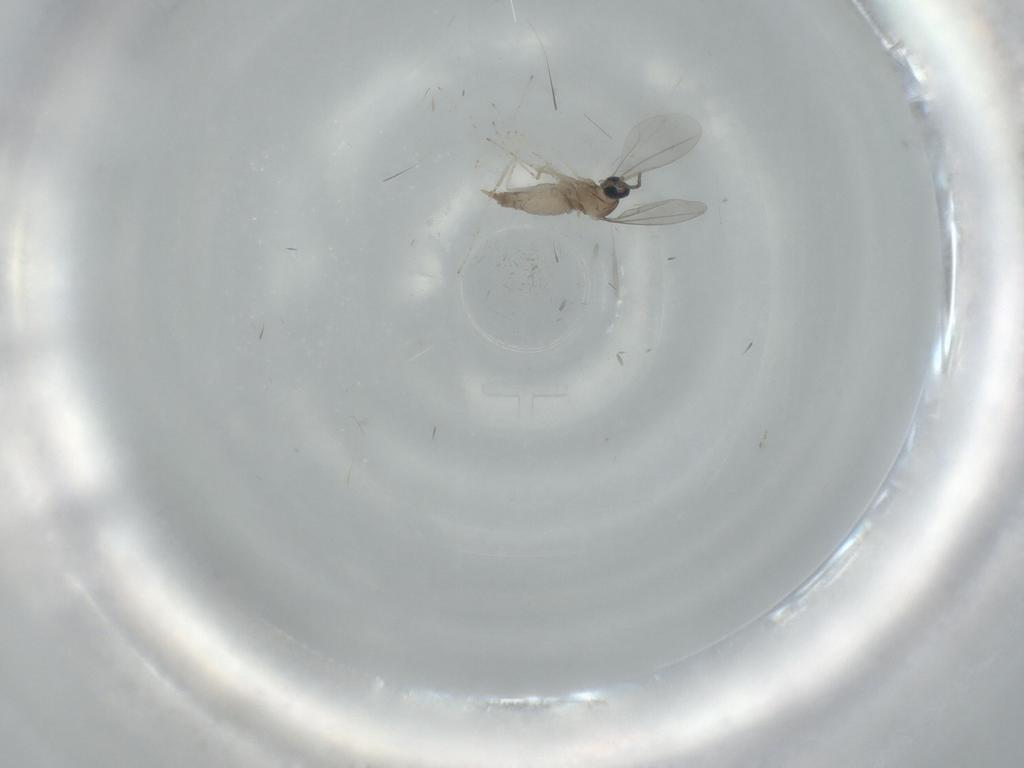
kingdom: Animalia
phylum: Arthropoda
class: Insecta
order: Diptera
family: Cecidomyiidae
